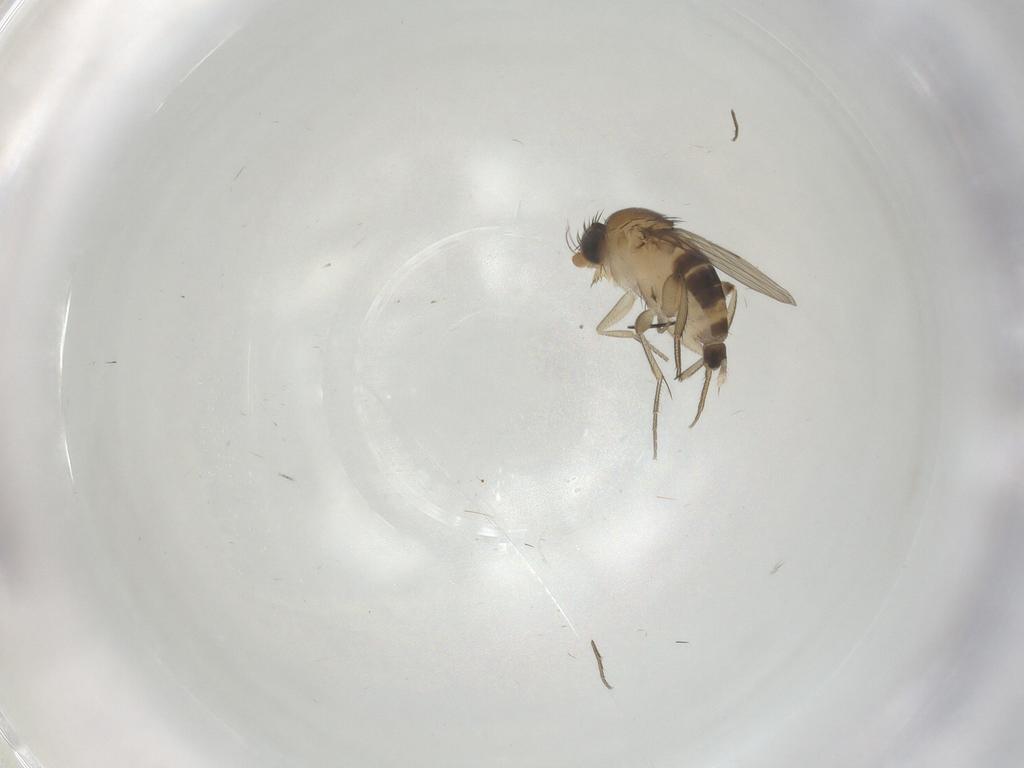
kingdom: Animalia
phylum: Arthropoda
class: Insecta
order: Diptera
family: Phoridae
